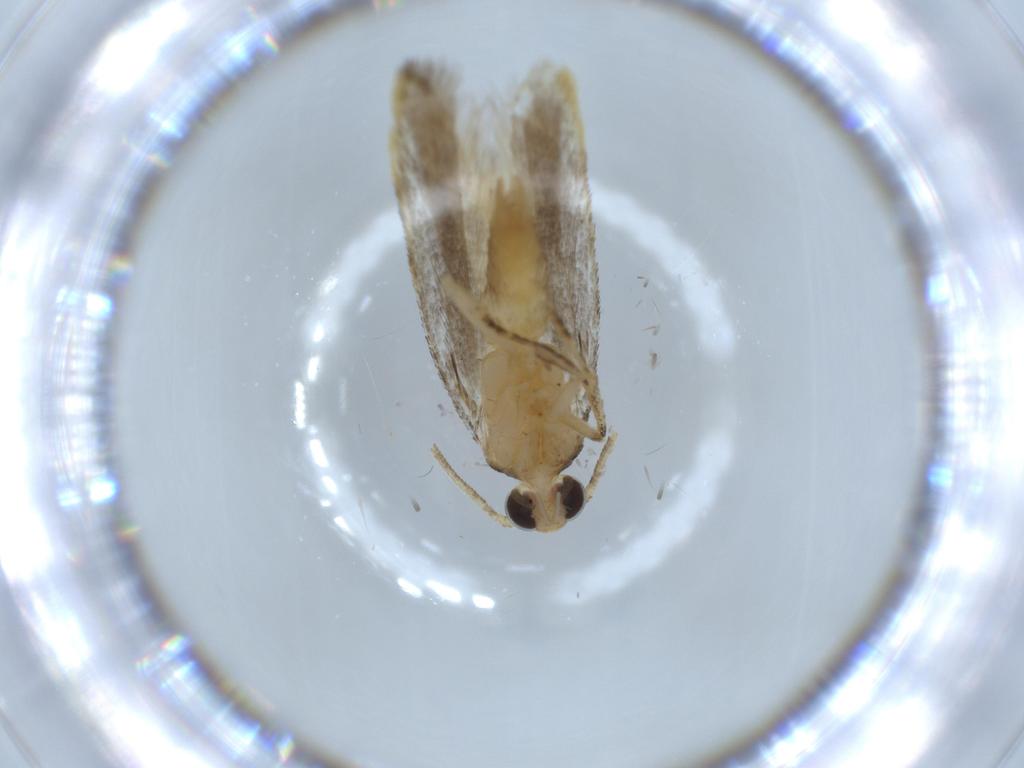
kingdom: Animalia
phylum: Arthropoda
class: Insecta
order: Lepidoptera
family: Autostichidae
